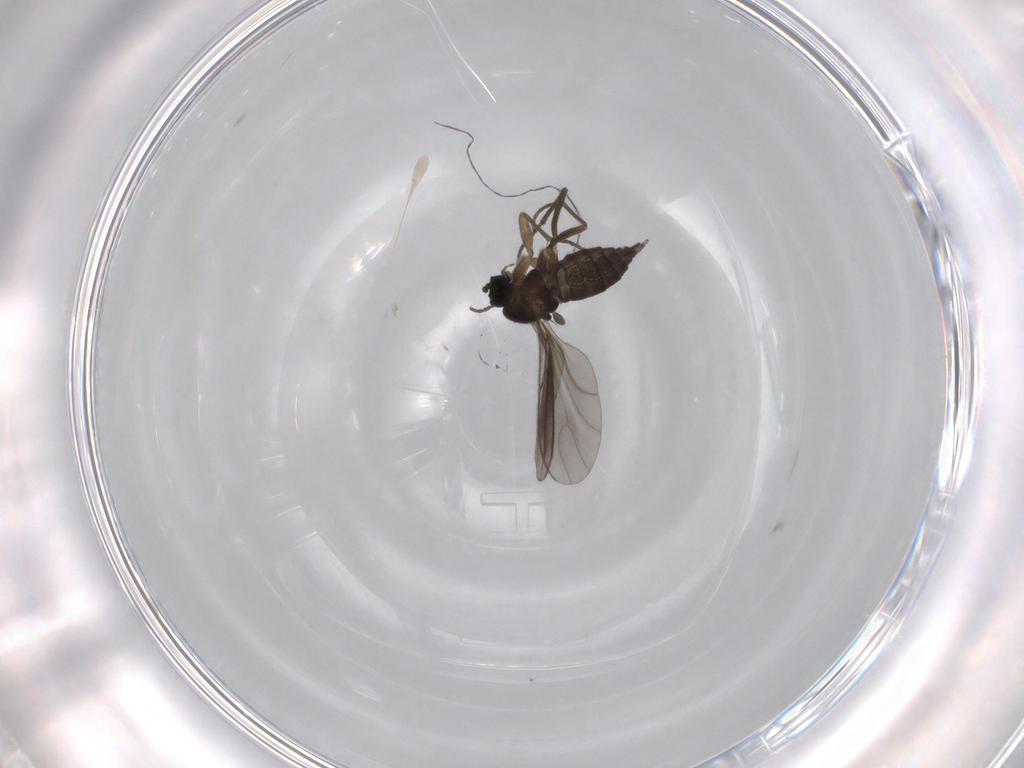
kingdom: Animalia
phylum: Arthropoda
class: Insecta
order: Diptera
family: Sciaridae
